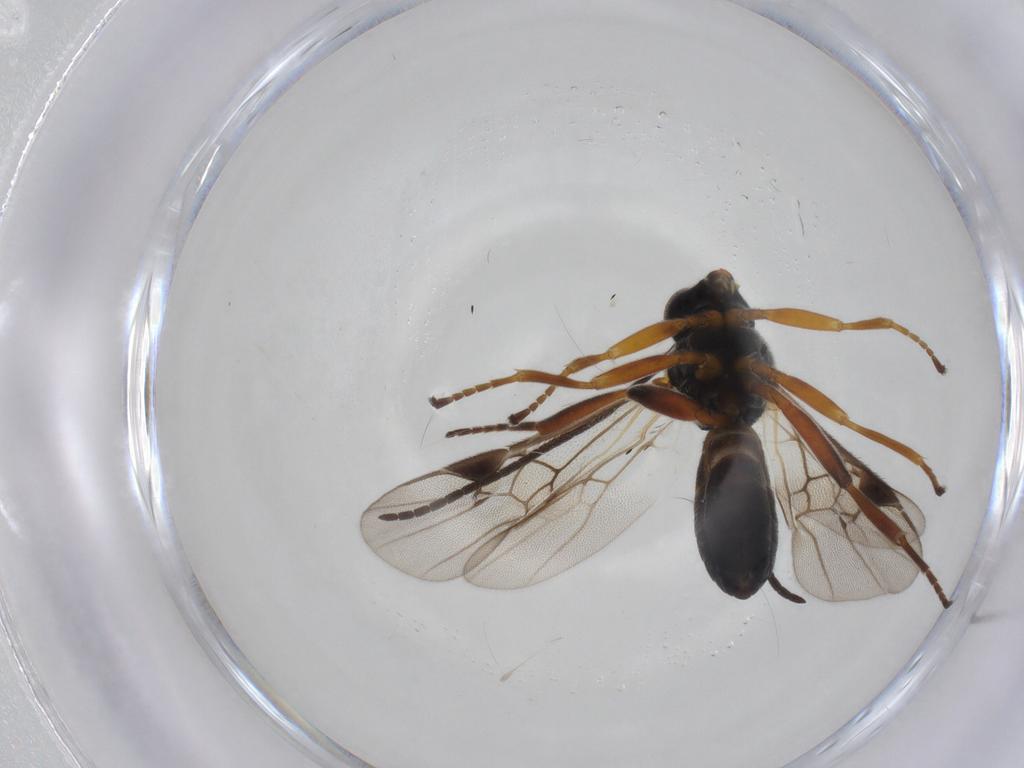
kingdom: Animalia
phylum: Arthropoda
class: Insecta
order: Hymenoptera
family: Braconidae
